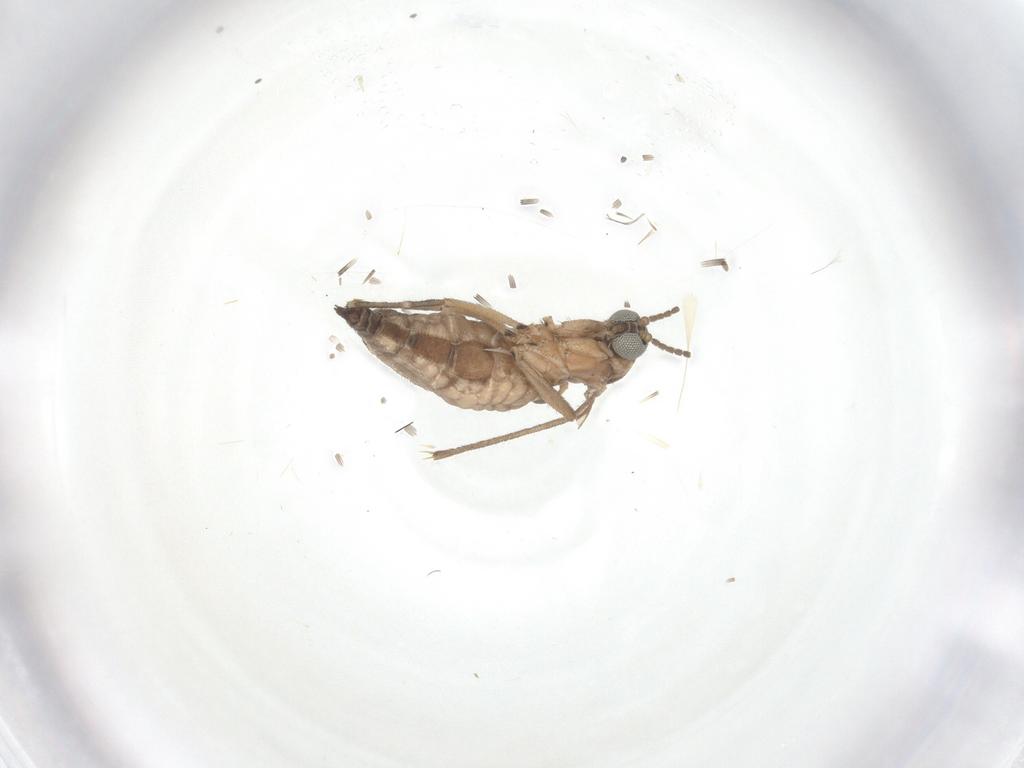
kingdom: Animalia
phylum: Arthropoda
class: Insecta
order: Diptera
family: Sciaridae
